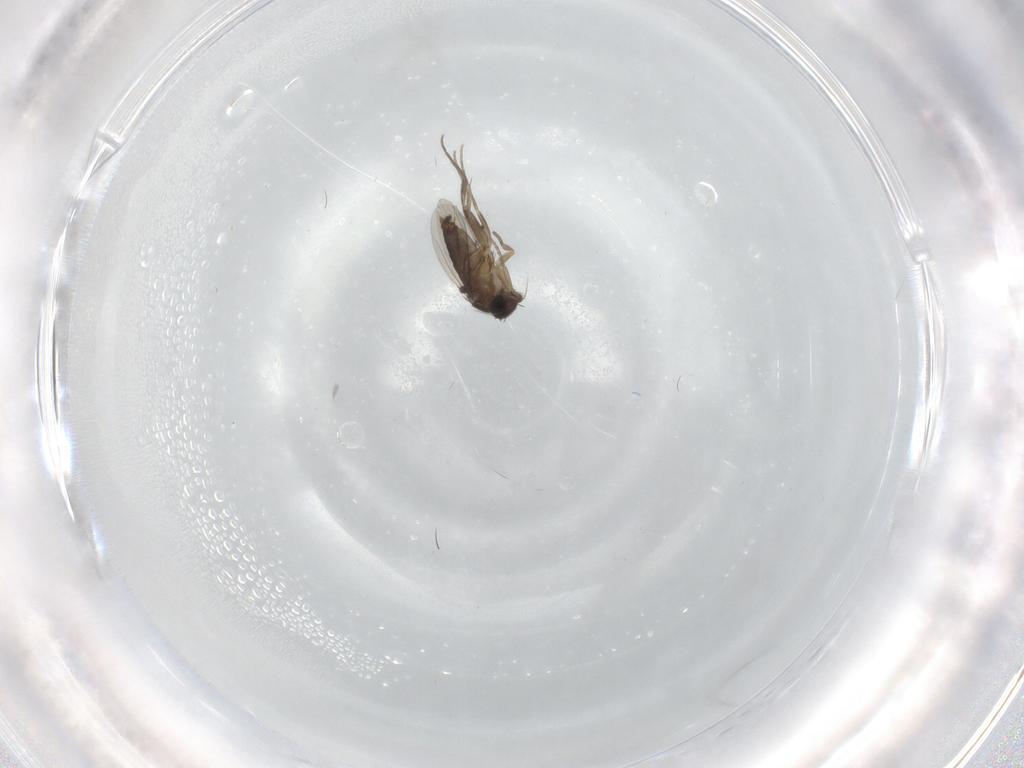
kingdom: Animalia
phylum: Arthropoda
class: Insecta
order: Diptera
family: Phoridae
